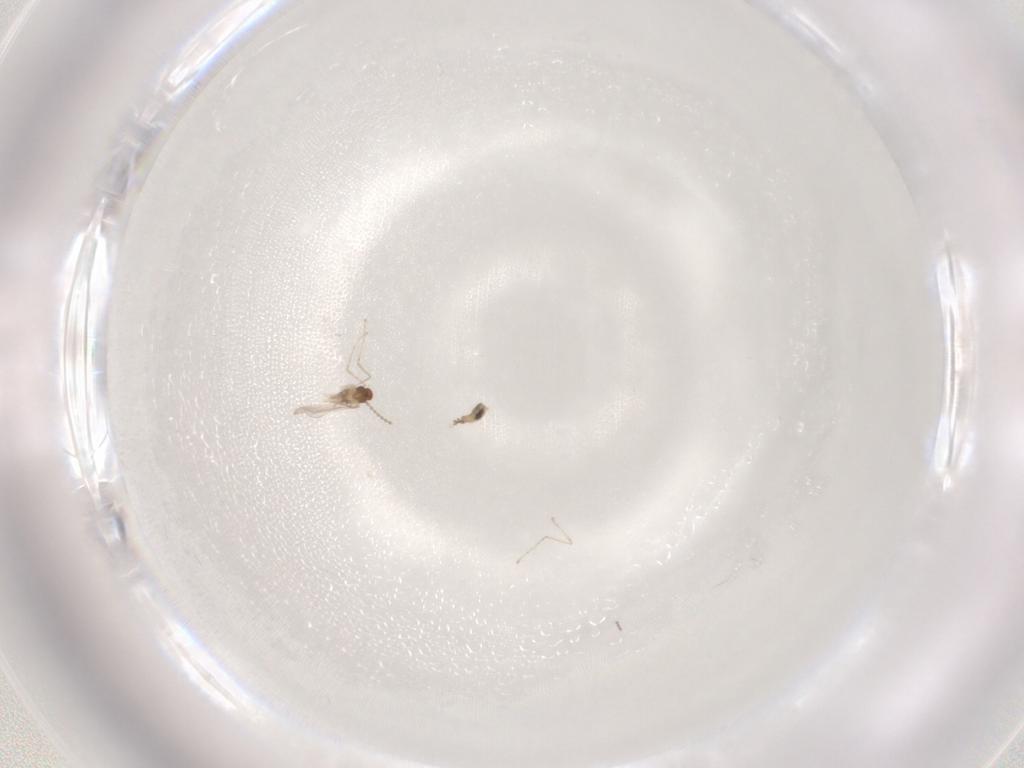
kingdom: Animalia
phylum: Arthropoda
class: Insecta
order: Diptera
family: Cecidomyiidae
